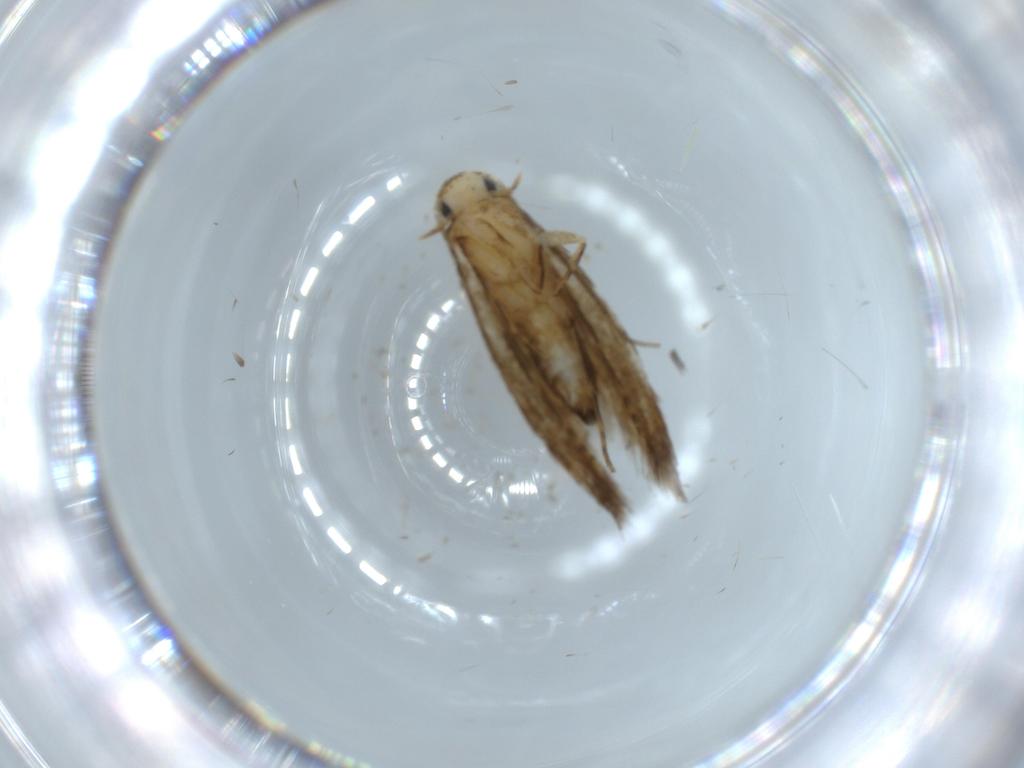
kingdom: Animalia
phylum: Arthropoda
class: Insecta
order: Lepidoptera
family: Tineidae
